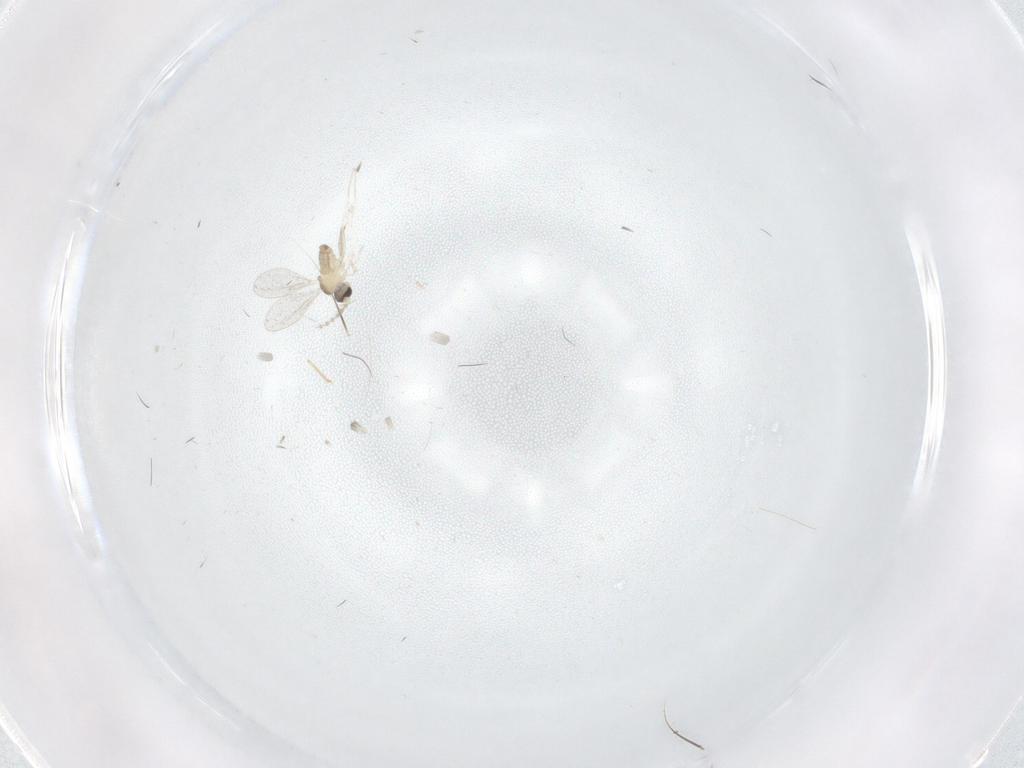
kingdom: Animalia
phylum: Arthropoda
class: Insecta
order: Diptera
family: Cecidomyiidae
